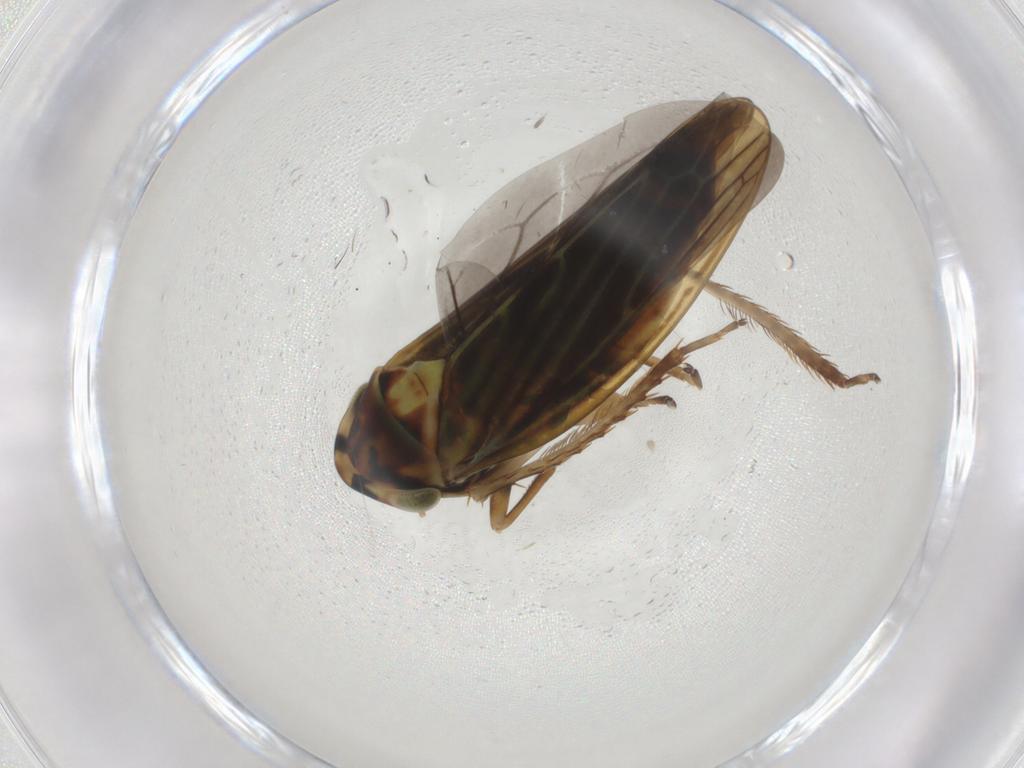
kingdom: Animalia
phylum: Arthropoda
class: Insecta
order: Hemiptera
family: Cicadellidae
